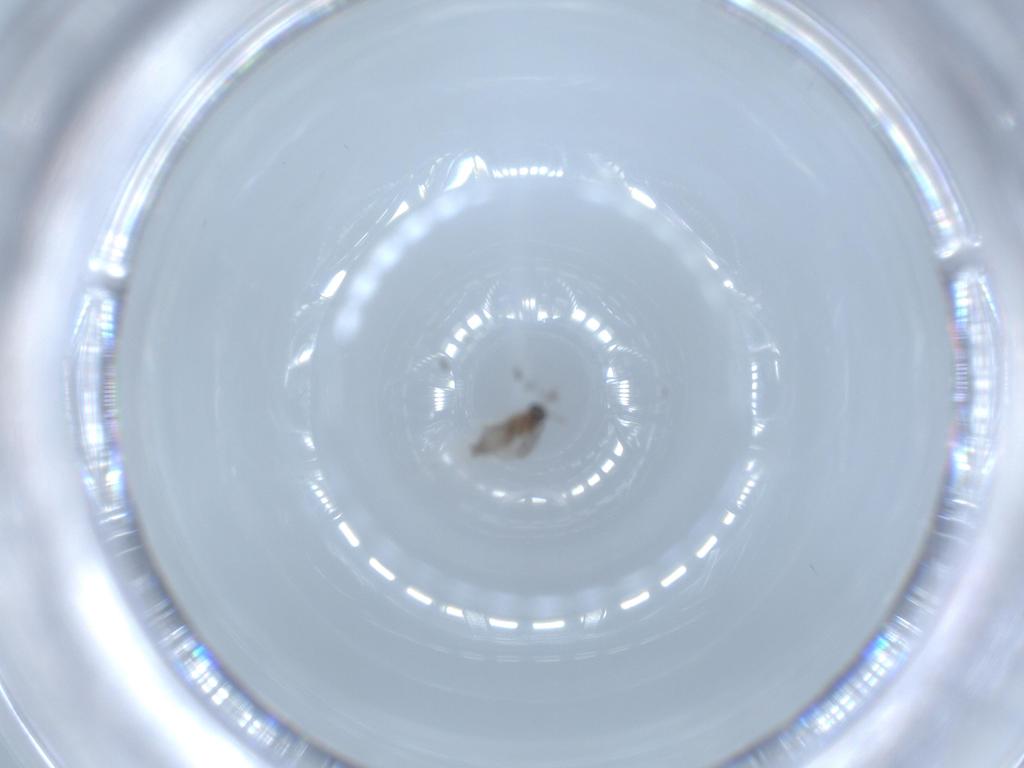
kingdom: Animalia
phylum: Arthropoda
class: Insecta
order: Diptera
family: Cecidomyiidae
